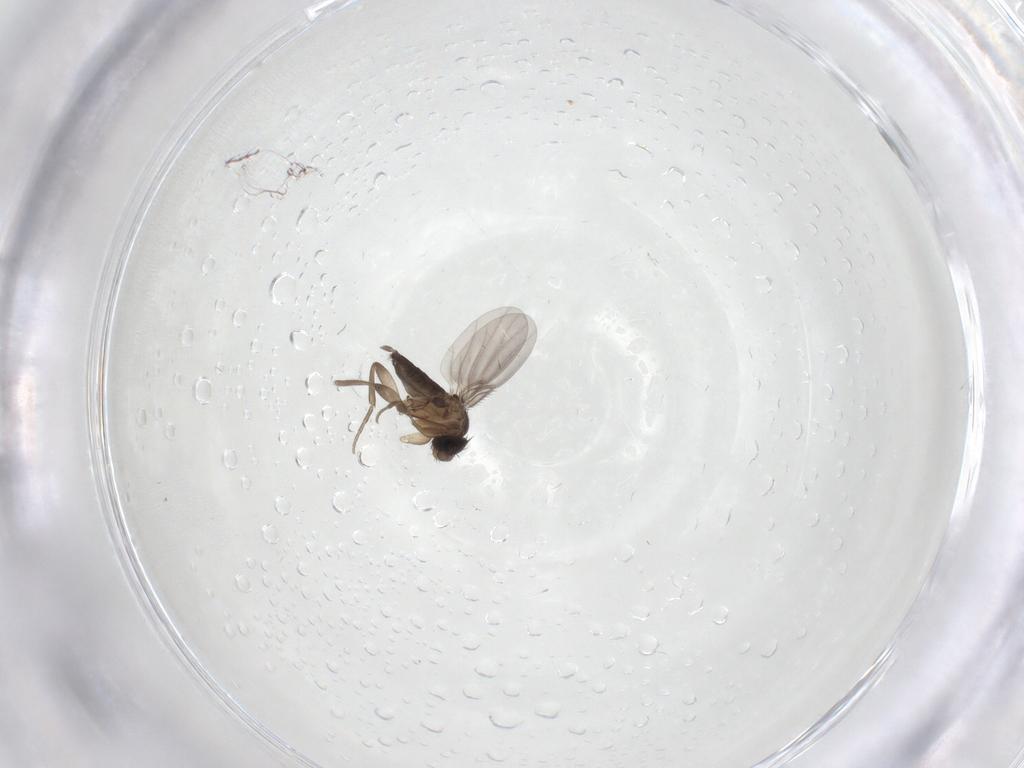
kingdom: Animalia
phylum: Arthropoda
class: Insecta
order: Diptera
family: Phoridae
